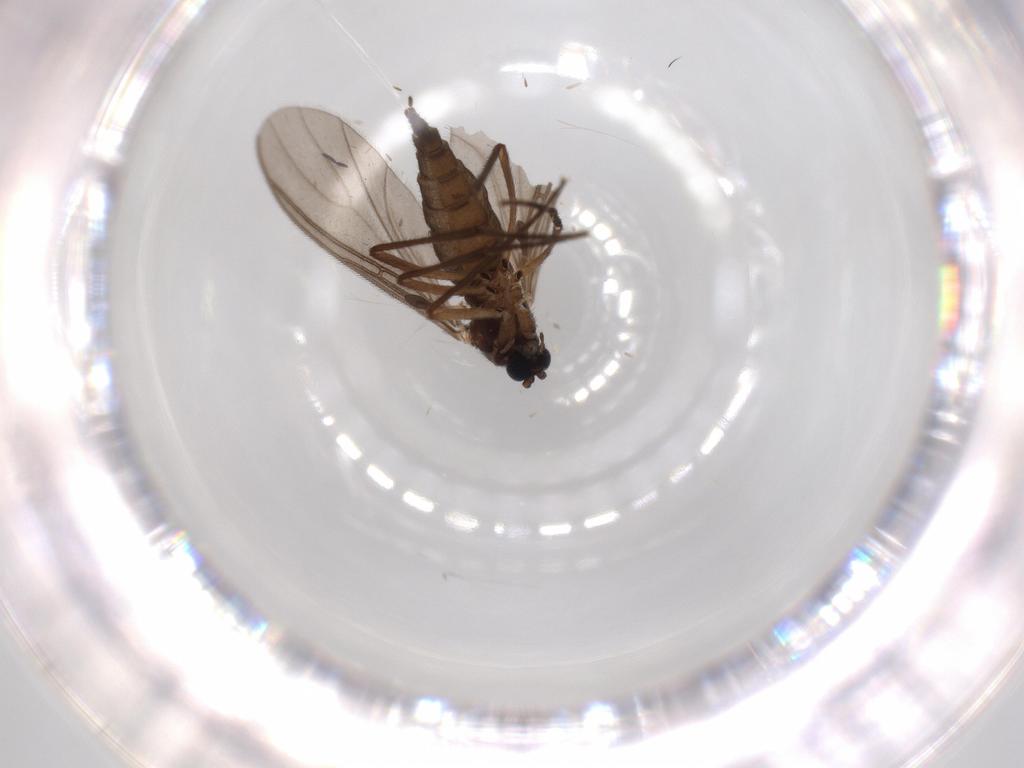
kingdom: Animalia
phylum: Arthropoda
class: Insecta
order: Diptera
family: Sciaridae
